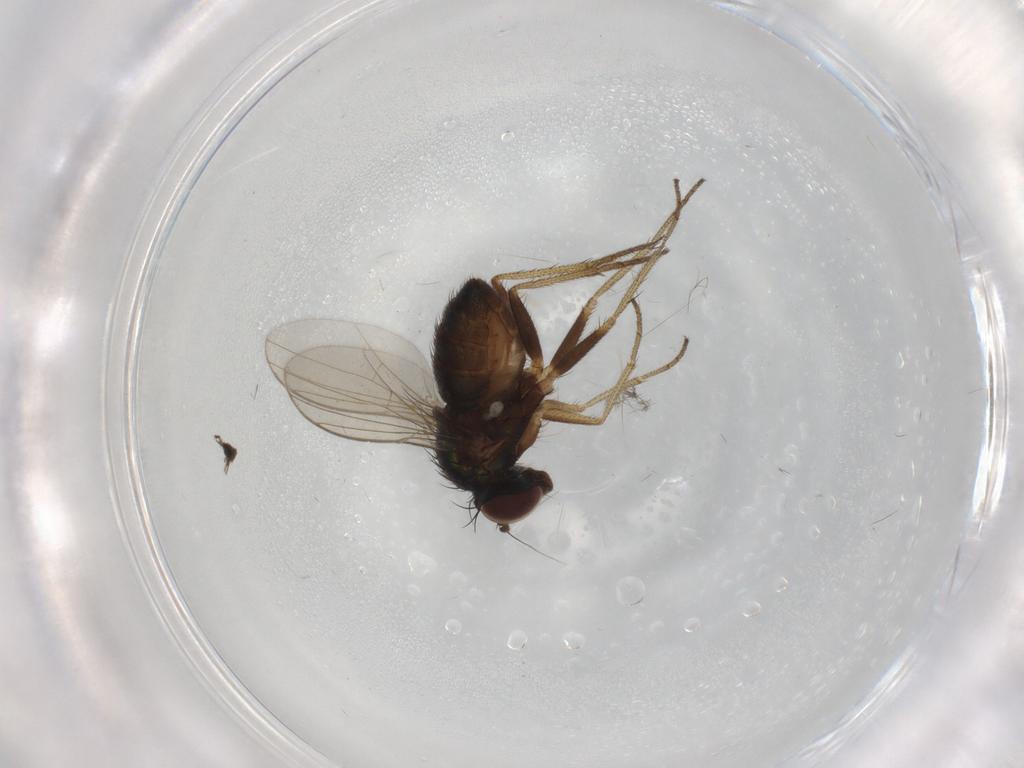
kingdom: Animalia
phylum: Arthropoda
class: Insecta
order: Diptera
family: Dolichopodidae
